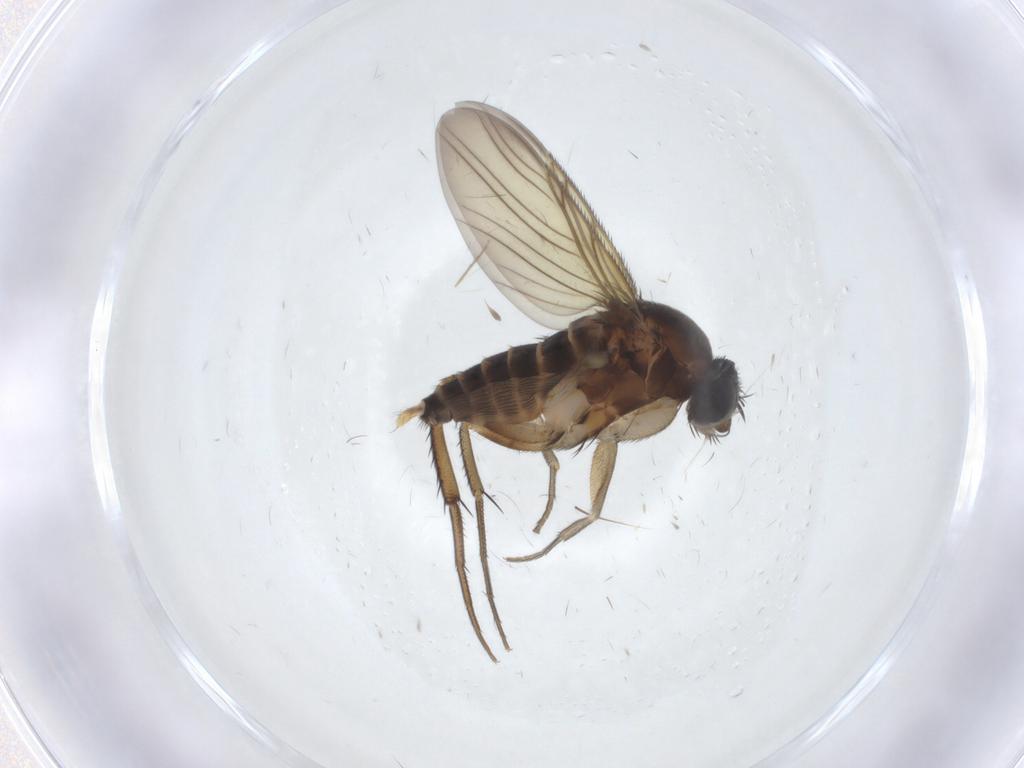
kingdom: Animalia
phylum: Arthropoda
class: Insecta
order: Diptera
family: Phoridae
